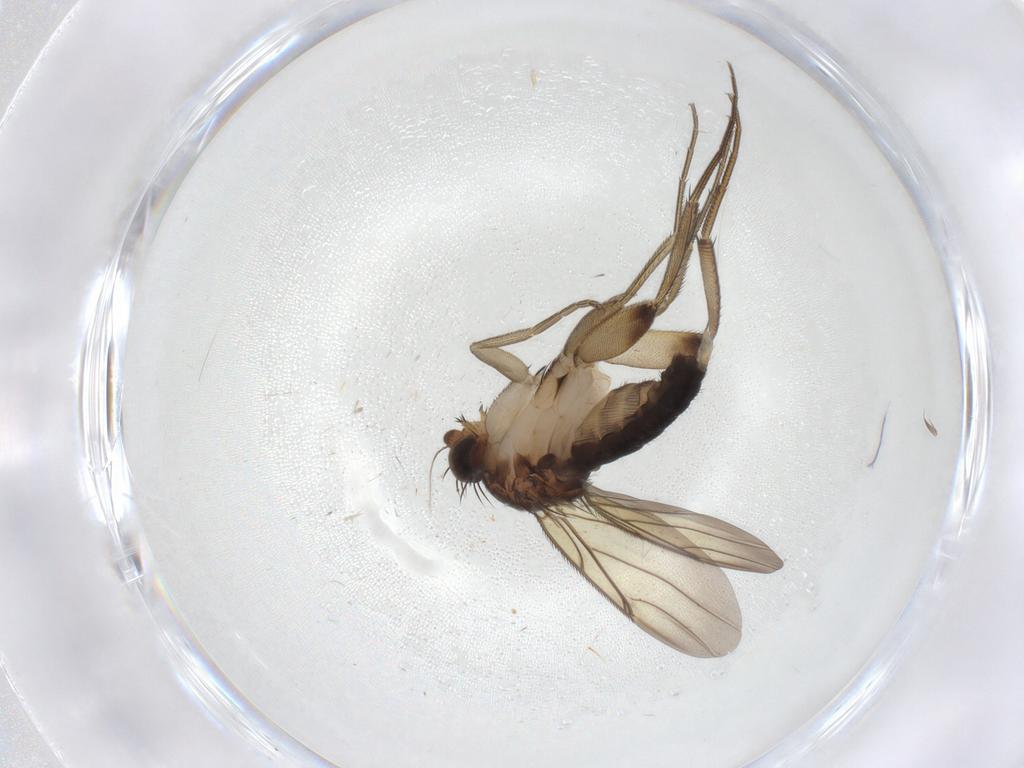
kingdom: Animalia
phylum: Arthropoda
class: Insecta
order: Diptera
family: Phoridae
